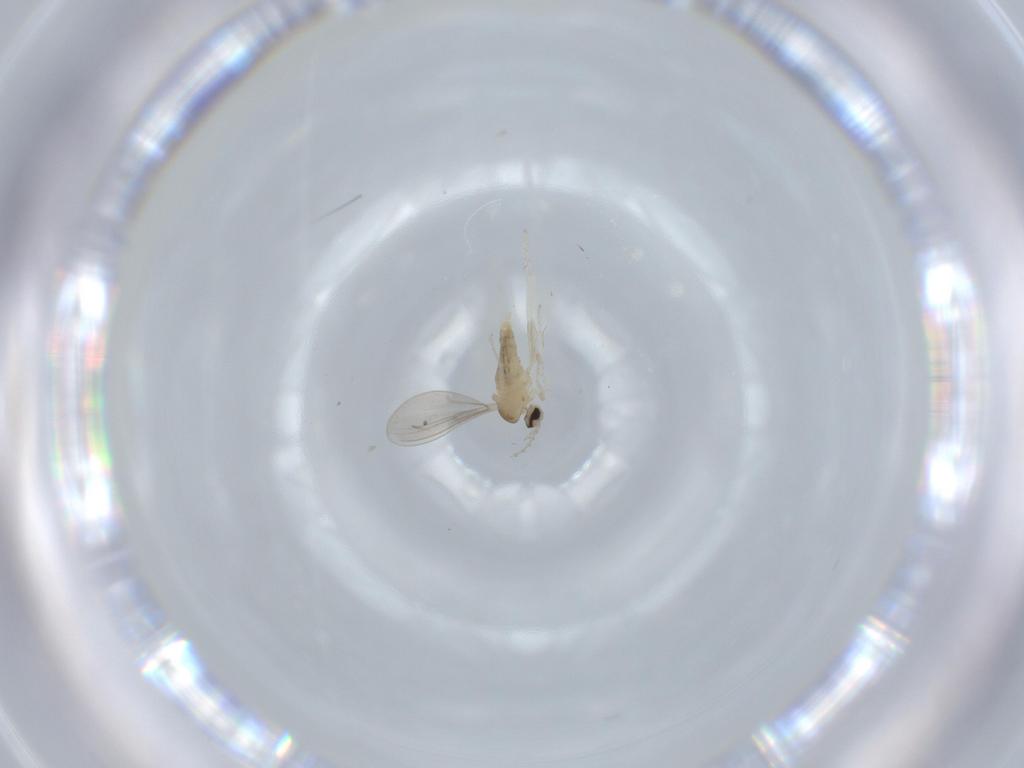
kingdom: Animalia
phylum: Arthropoda
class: Insecta
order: Diptera
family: Cecidomyiidae
